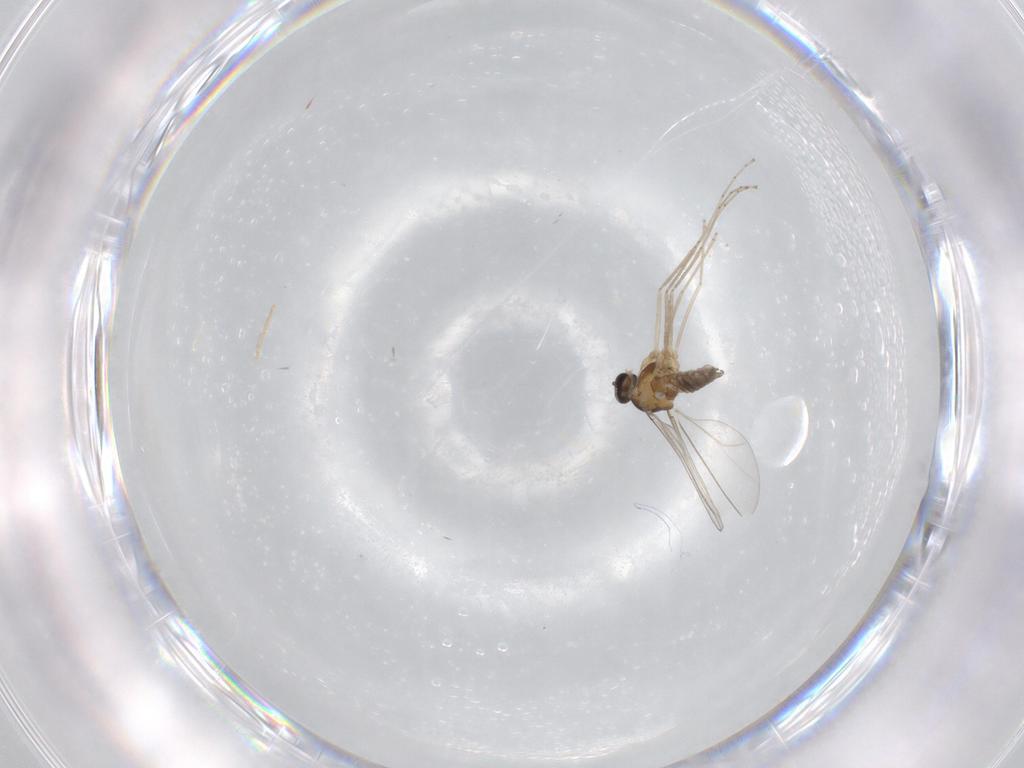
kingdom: Animalia
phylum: Arthropoda
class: Insecta
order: Diptera
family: Cecidomyiidae
